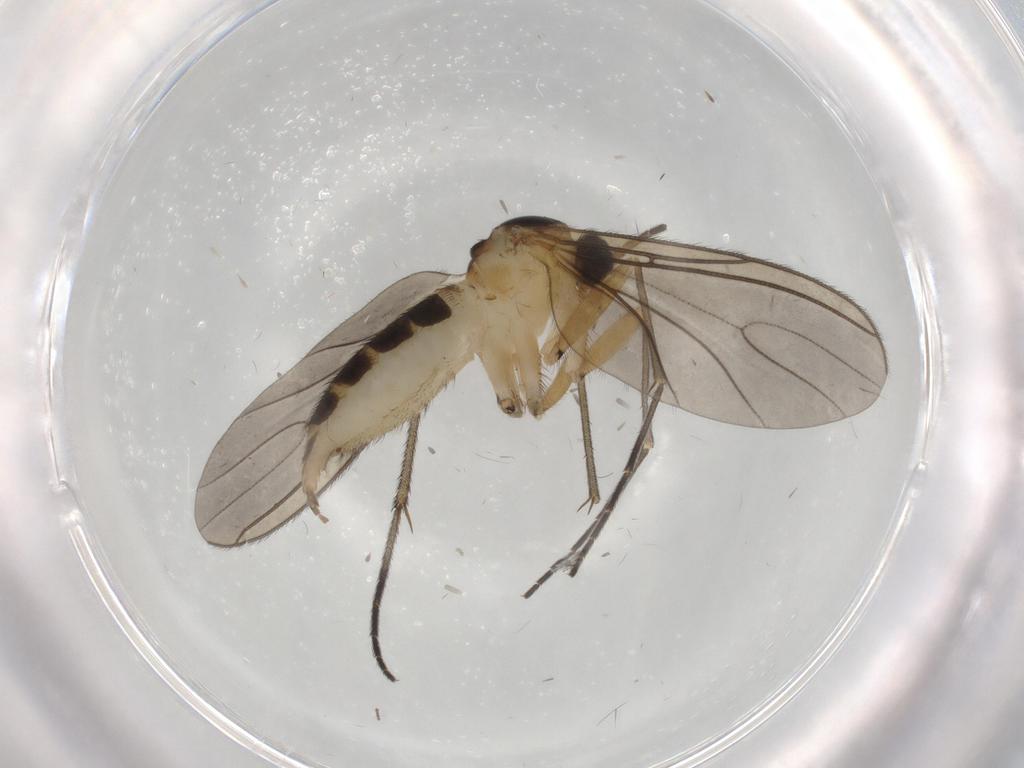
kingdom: Animalia
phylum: Arthropoda
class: Insecta
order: Diptera
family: Sciaridae
